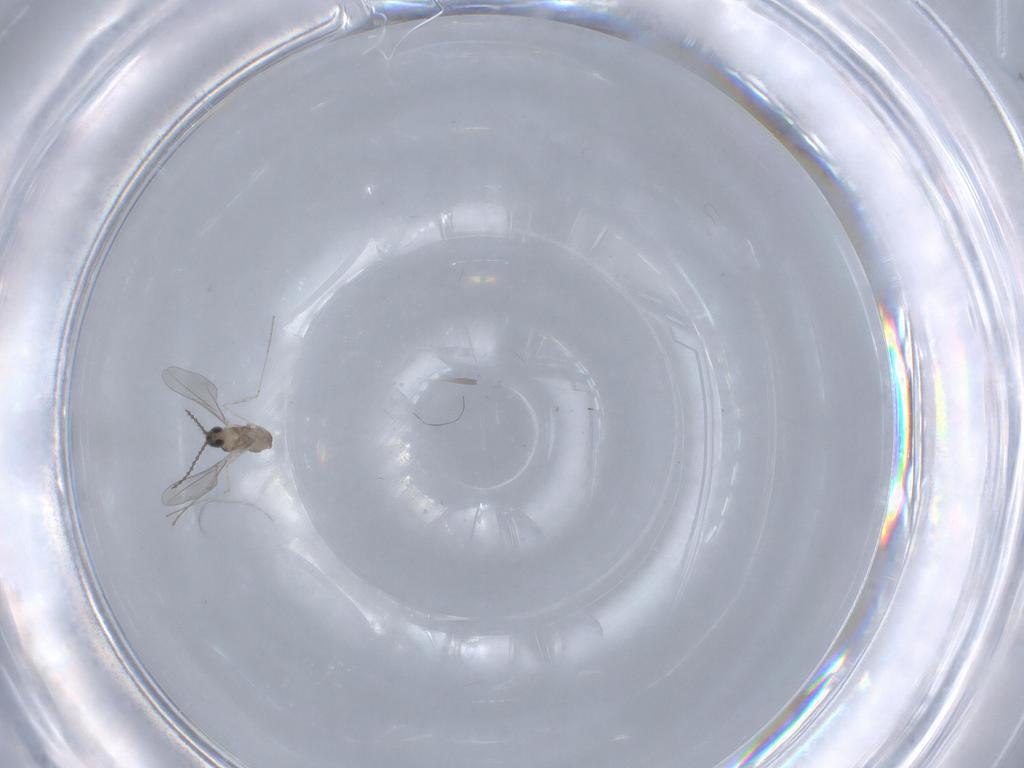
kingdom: Animalia
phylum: Arthropoda
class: Insecta
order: Diptera
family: Cecidomyiidae
